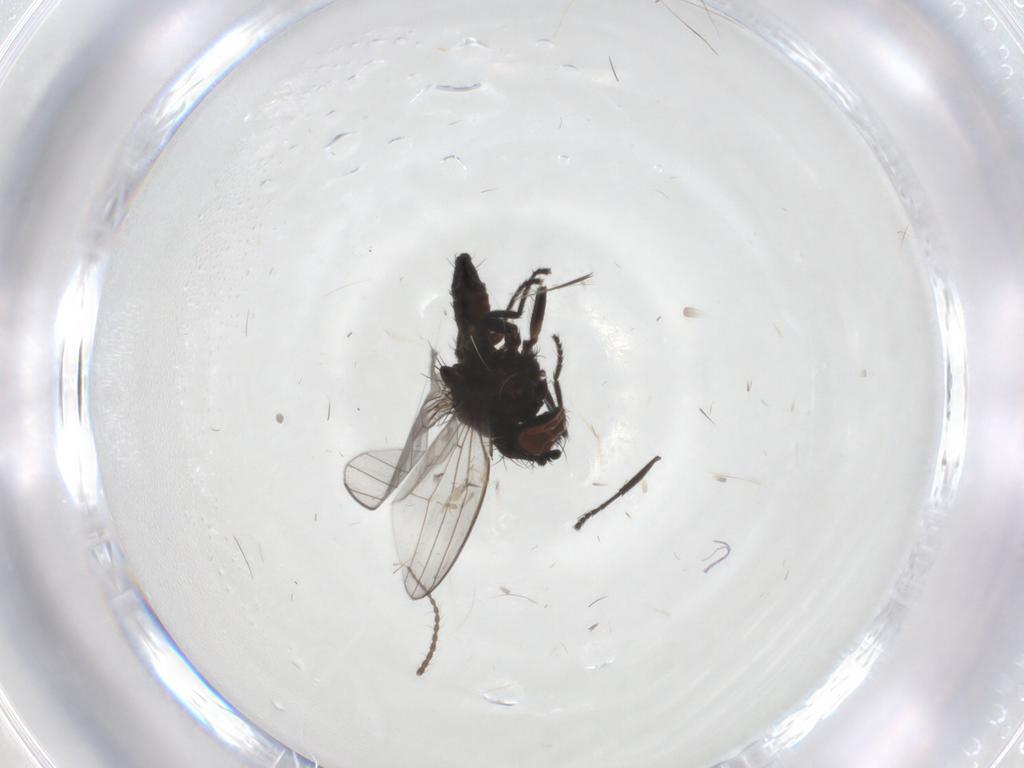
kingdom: Animalia
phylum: Arthropoda
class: Insecta
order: Diptera
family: Milichiidae
